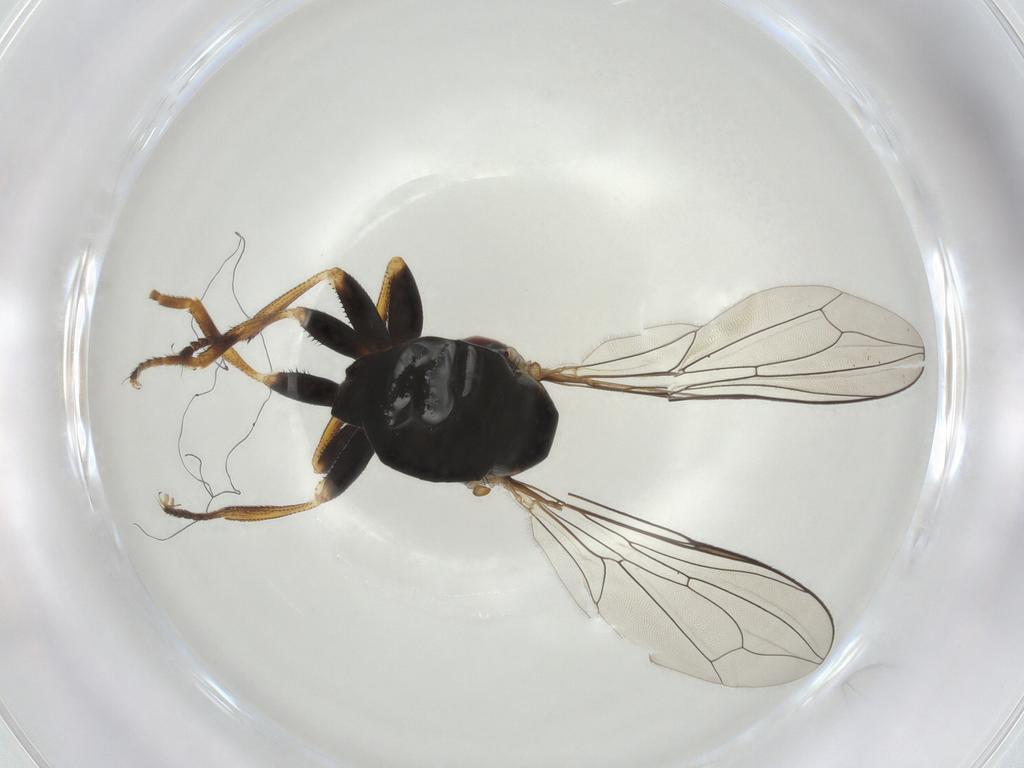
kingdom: Animalia
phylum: Arthropoda
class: Insecta
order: Diptera
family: Pipunculidae
